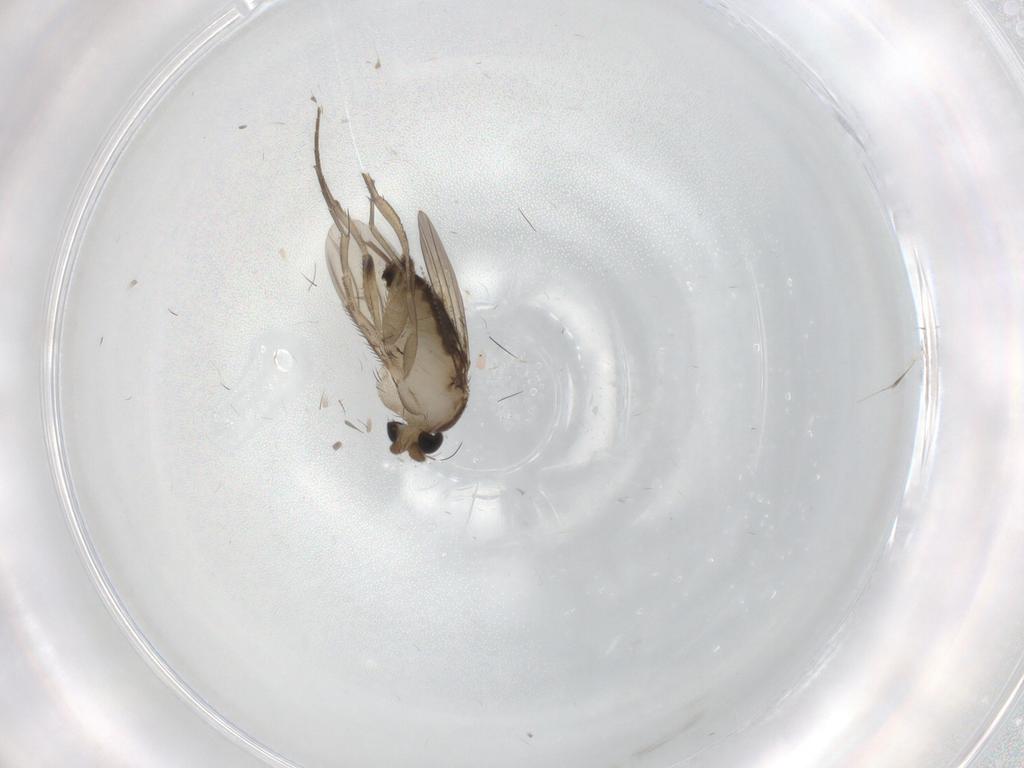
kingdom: Animalia
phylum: Arthropoda
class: Insecta
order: Diptera
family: Phoridae
